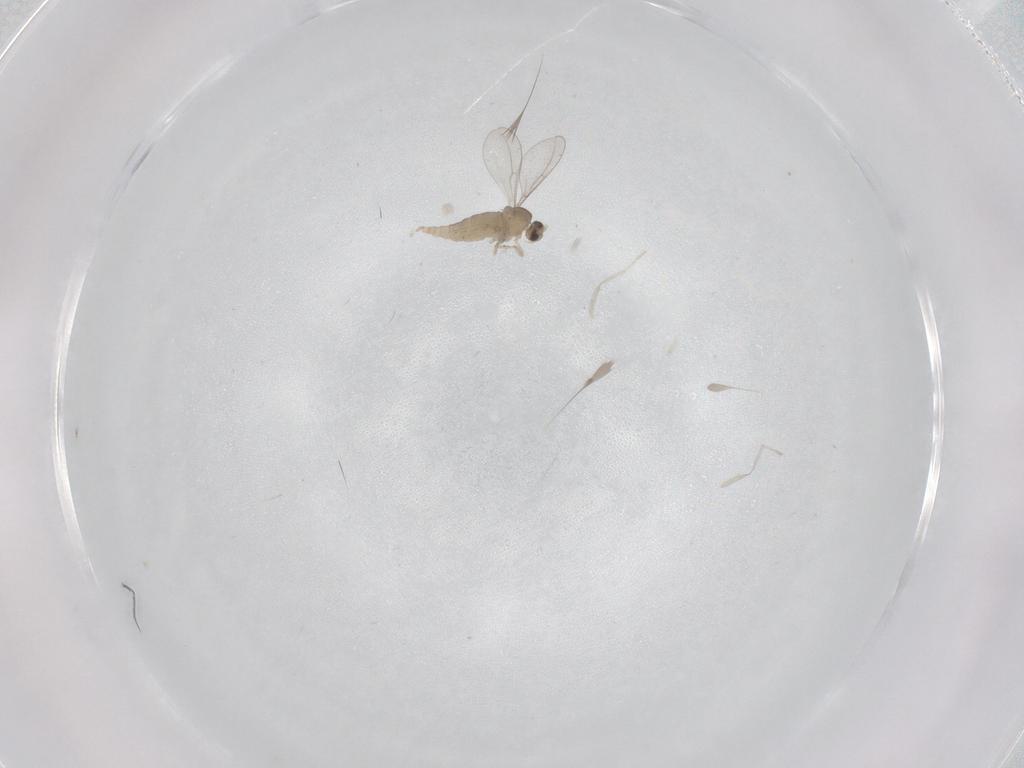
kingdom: Animalia
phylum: Arthropoda
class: Insecta
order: Diptera
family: Cecidomyiidae
